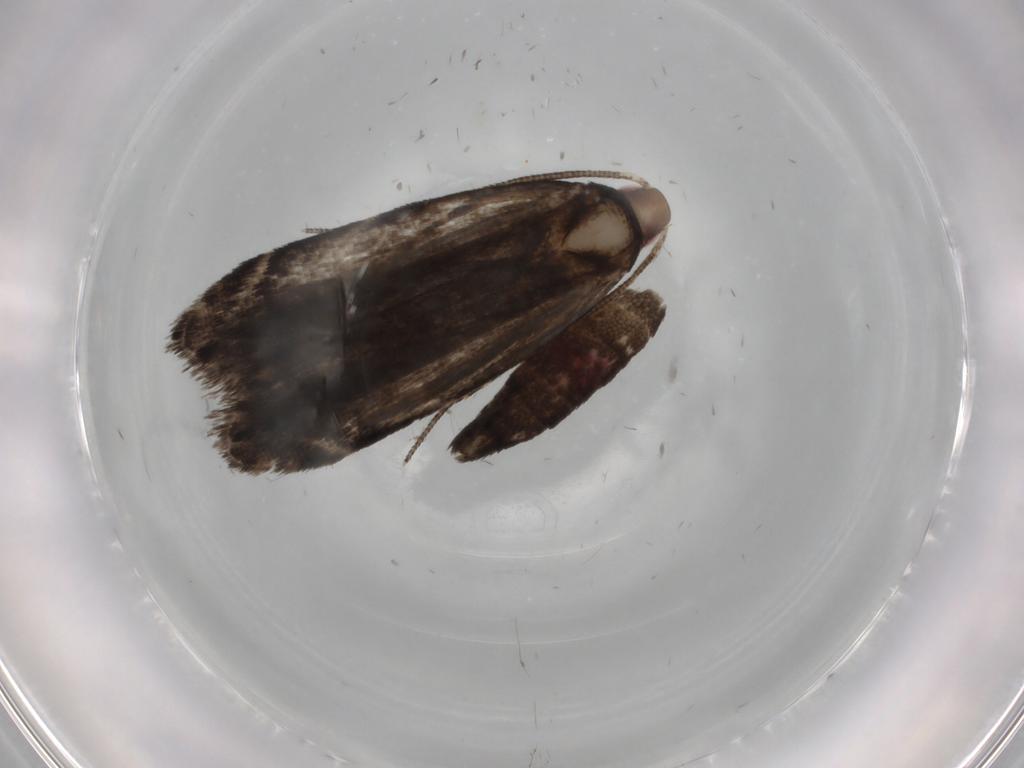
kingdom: Animalia
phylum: Arthropoda
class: Insecta
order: Lepidoptera
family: Gelechiidae
